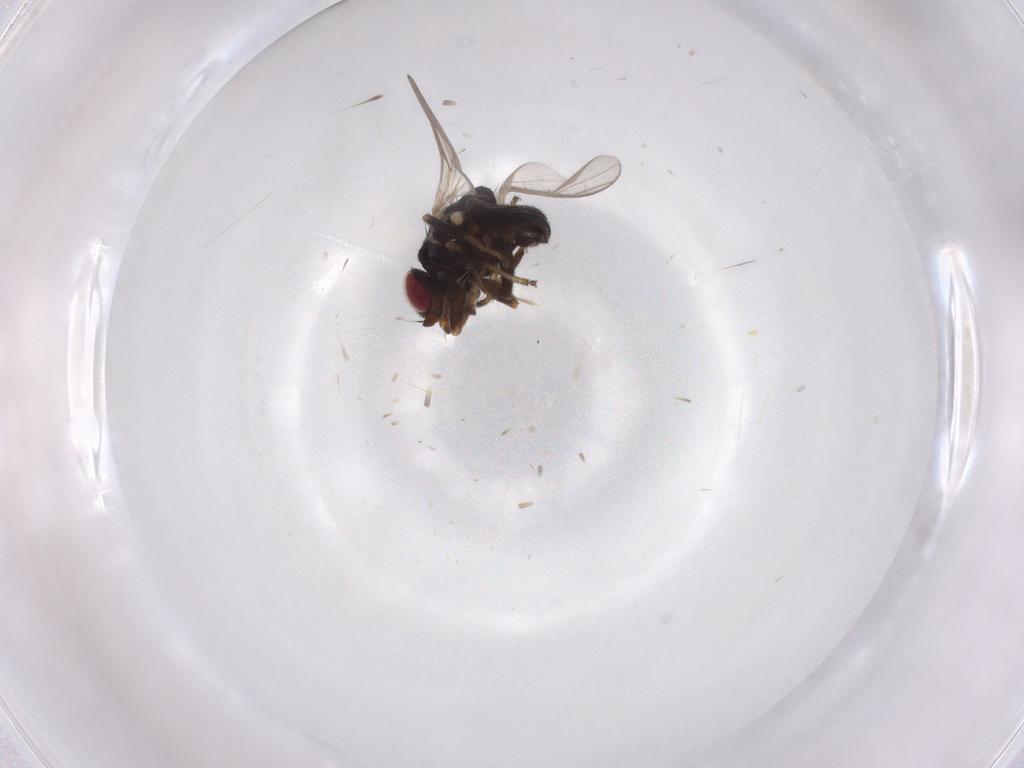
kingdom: Animalia
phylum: Arthropoda
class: Insecta
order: Diptera
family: Chloropidae
